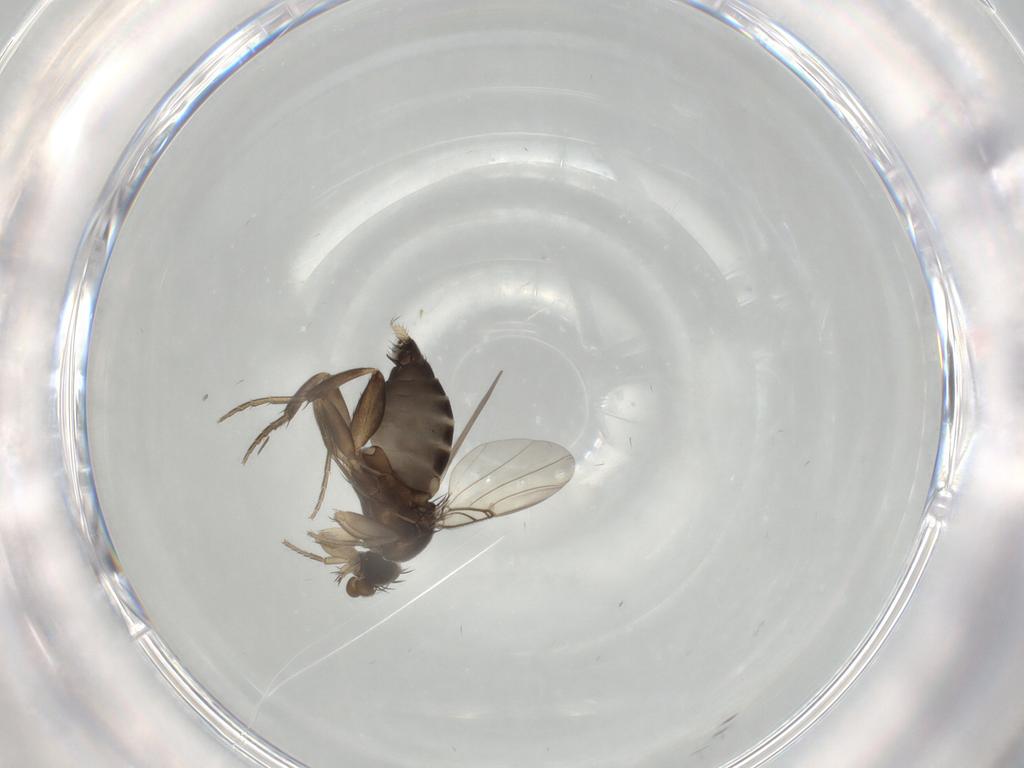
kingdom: Animalia
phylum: Arthropoda
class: Insecta
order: Diptera
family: Phoridae
